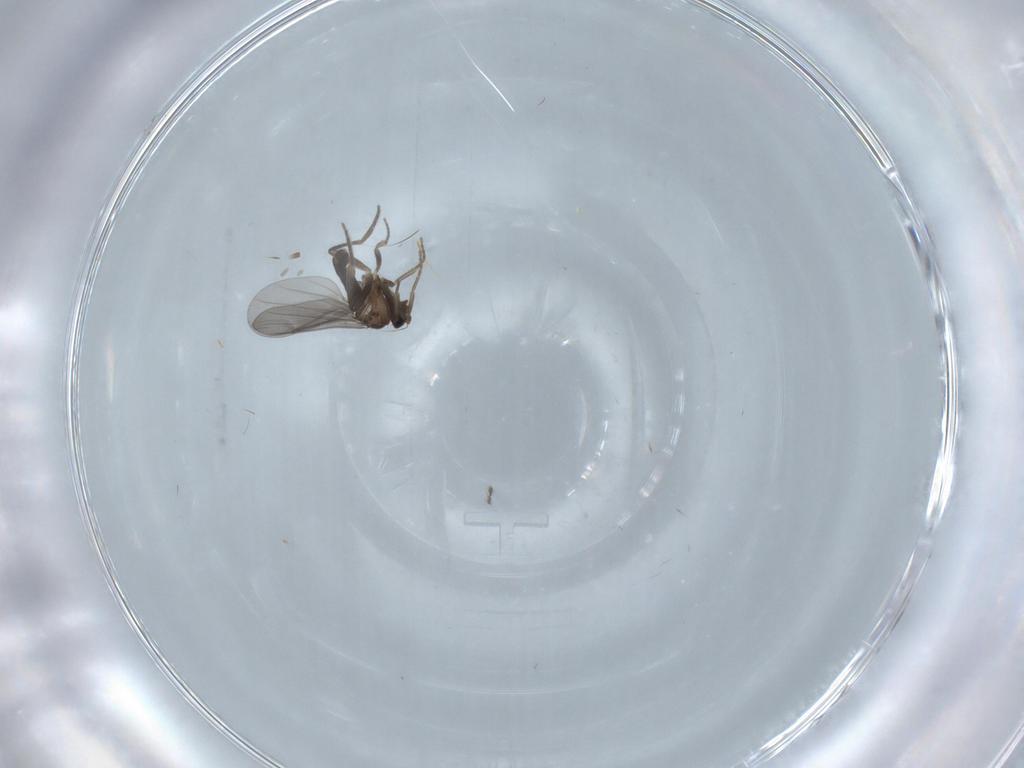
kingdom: Animalia
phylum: Arthropoda
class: Insecta
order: Diptera
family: Phoridae
